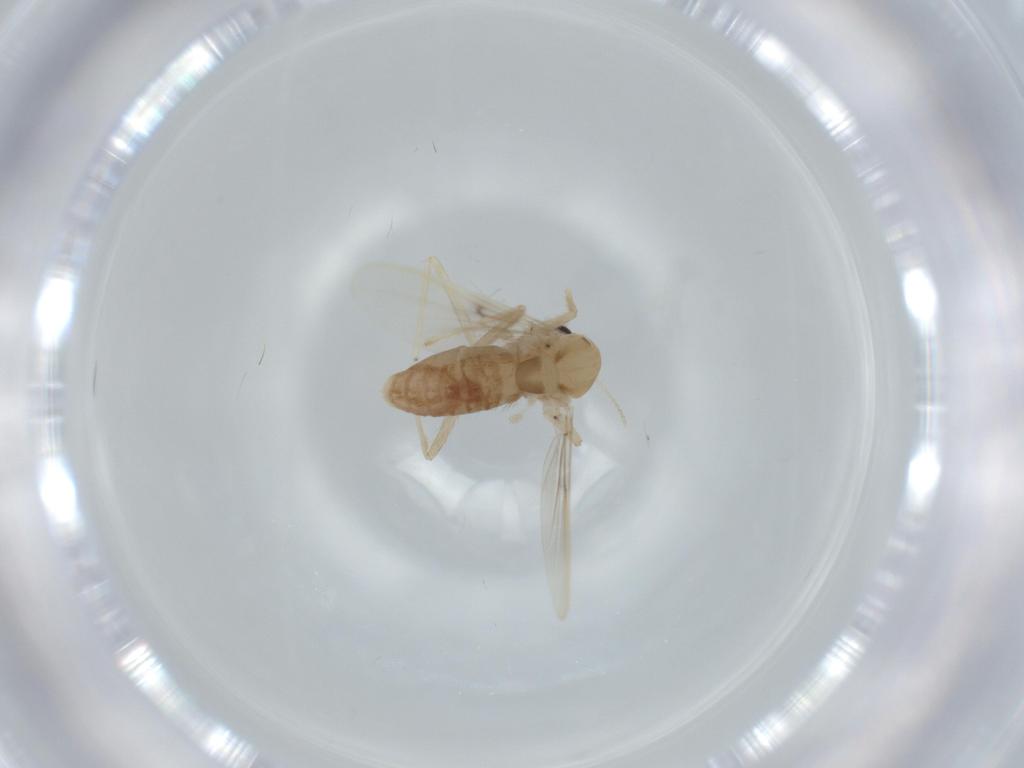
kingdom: Animalia
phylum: Arthropoda
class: Insecta
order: Diptera
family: Chironomidae
